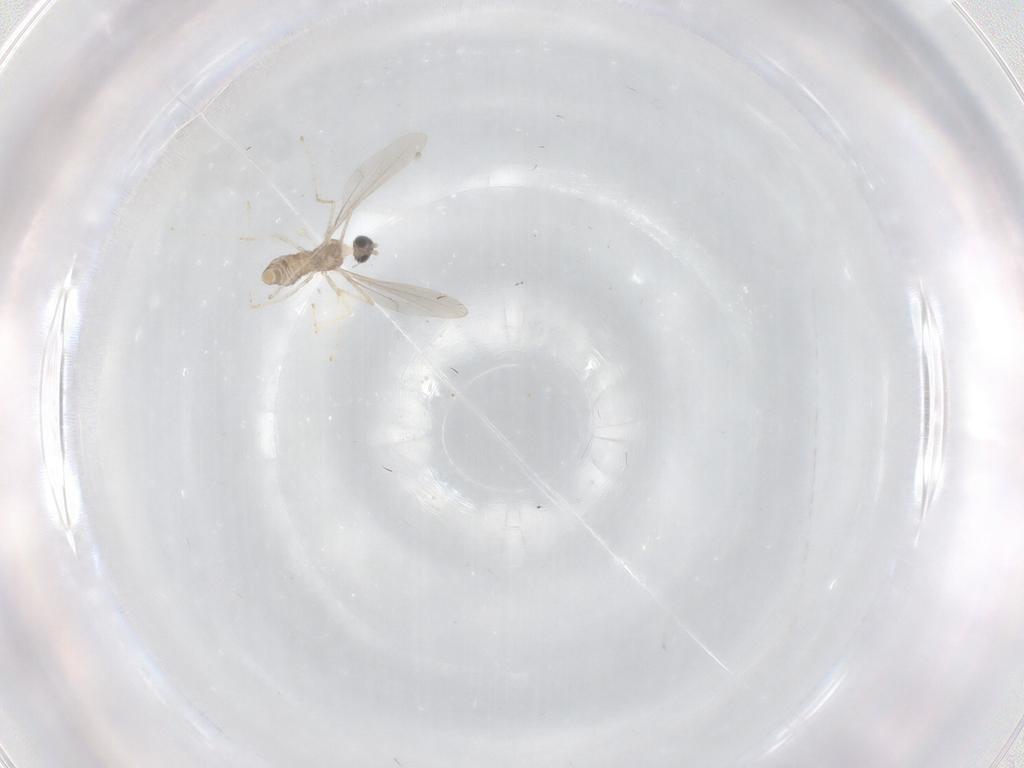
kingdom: Animalia
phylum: Arthropoda
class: Insecta
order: Diptera
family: Cecidomyiidae
